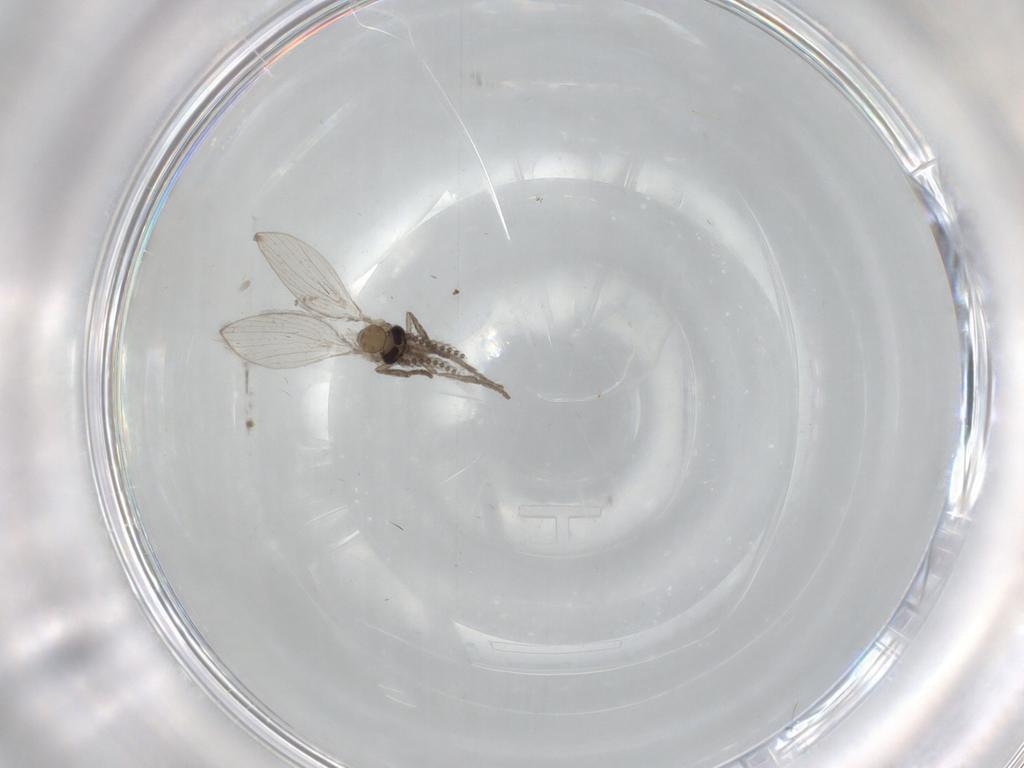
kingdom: Animalia
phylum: Arthropoda
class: Insecta
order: Diptera
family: Psychodidae
